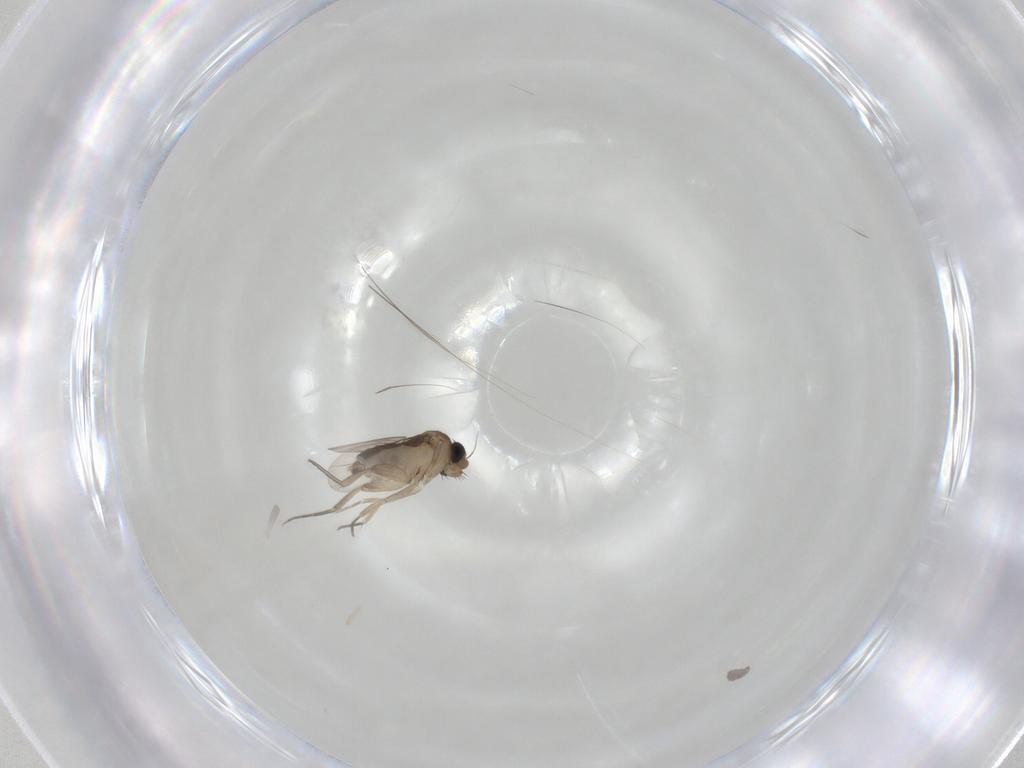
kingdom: Animalia
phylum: Arthropoda
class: Insecta
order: Diptera
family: Phoridae
